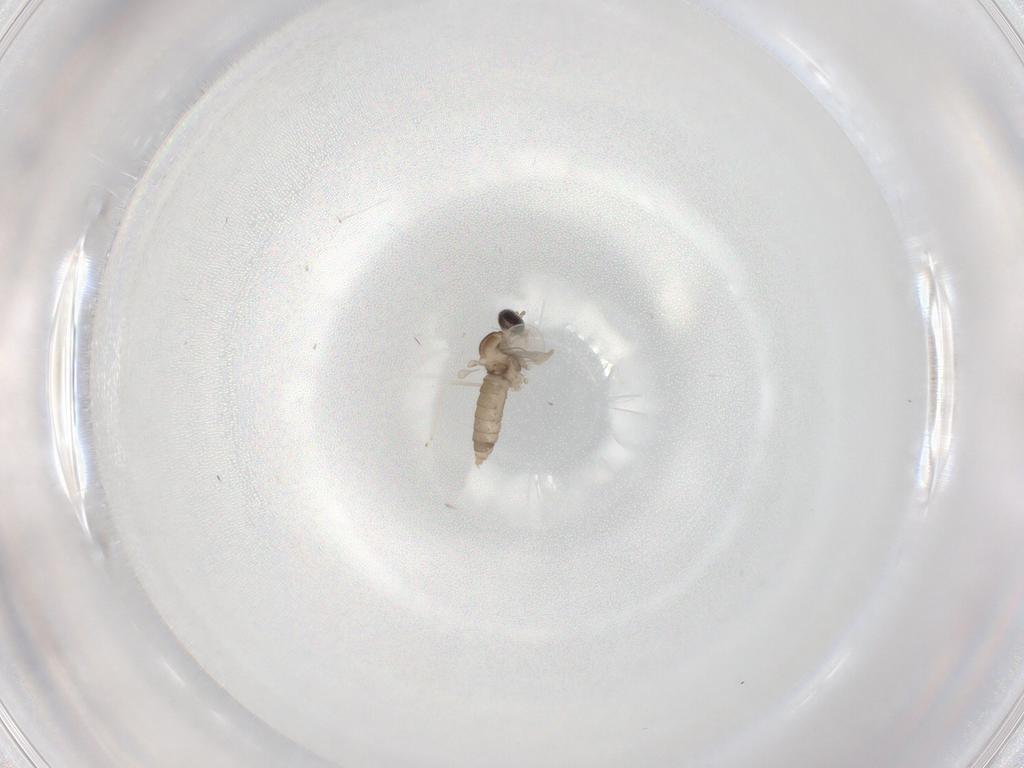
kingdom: Animalia
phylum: Arthropoda
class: Insecta
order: Diptera
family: Cecidomyiidae
